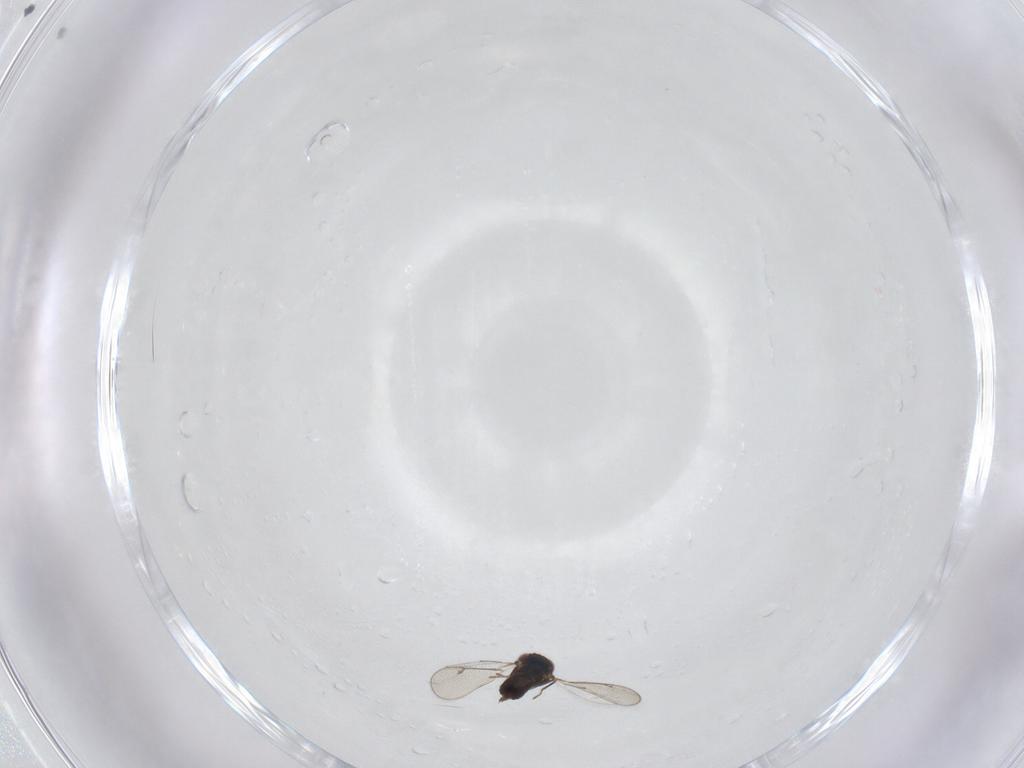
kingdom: Animalia
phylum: Arthropoda
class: Insecta
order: Hymenoptera
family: Eulophidae
